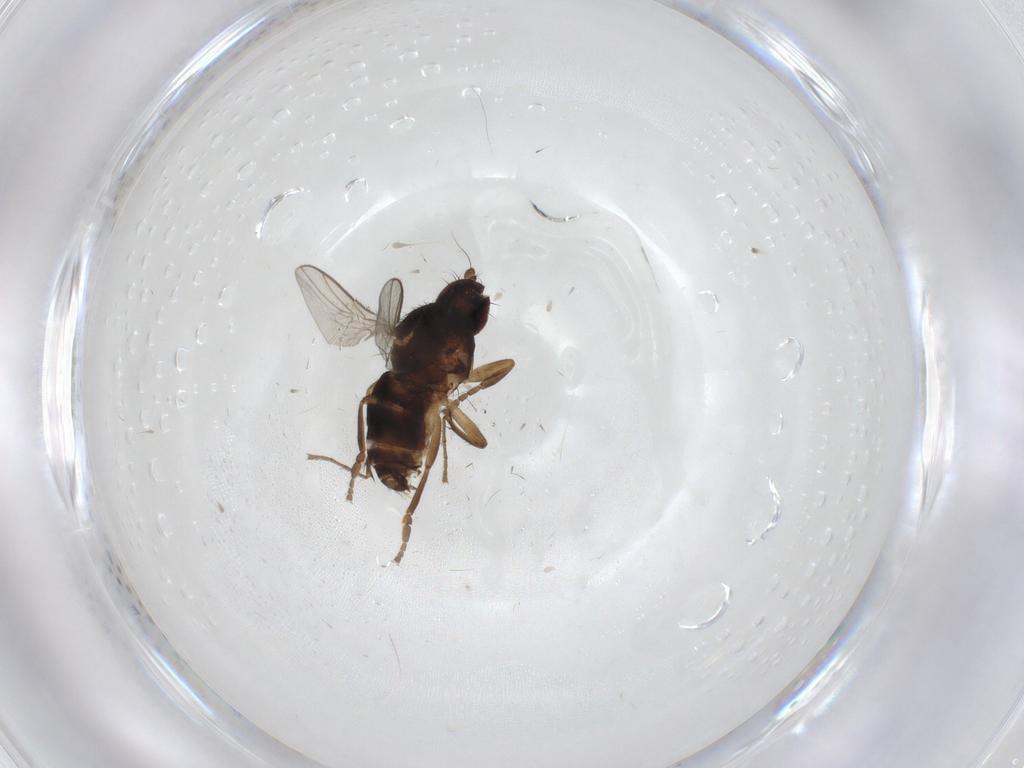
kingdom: Animalia
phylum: Arthropoda
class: Insecta
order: Diptera
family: Sphaeroceridae
